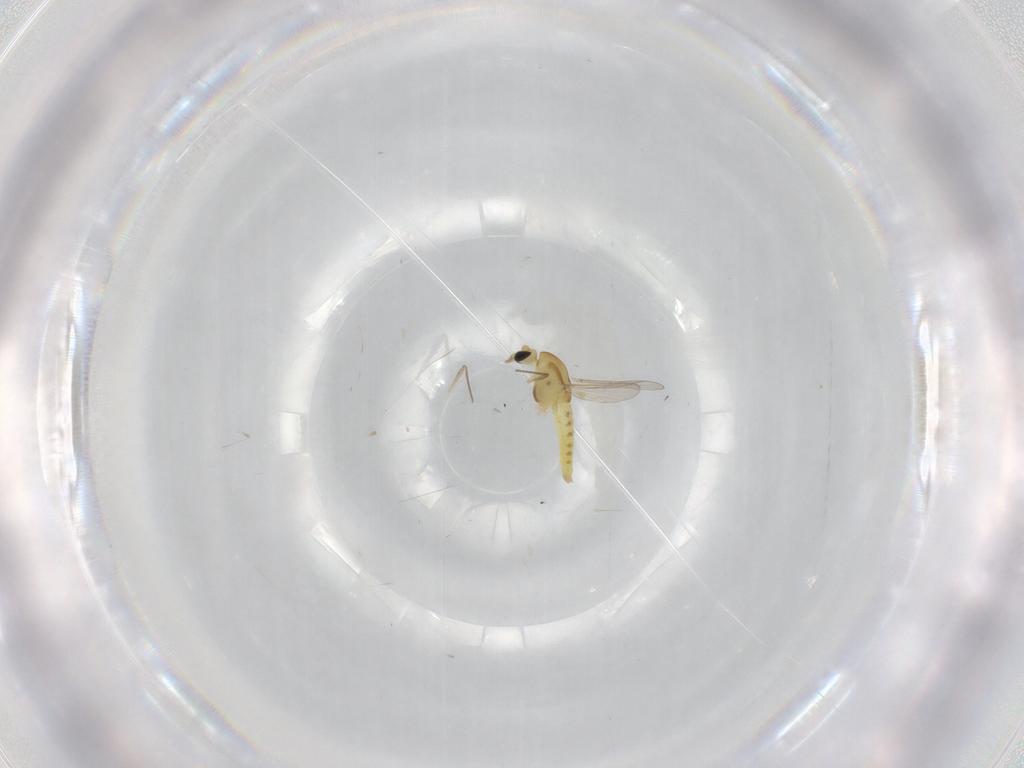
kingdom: Animalia
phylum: Arthropoda
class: Insecta
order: Diptera
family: Chironomidae
